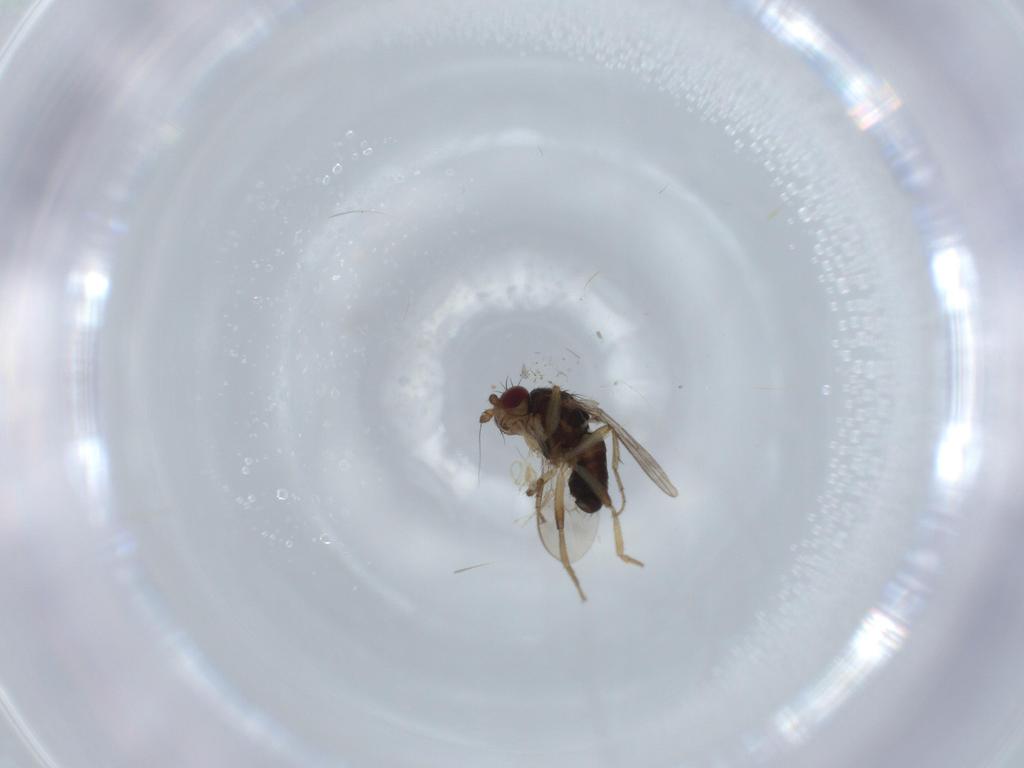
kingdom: Animalia
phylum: Arthropoda
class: Insecta
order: Diptera
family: Sphaeroceridae
